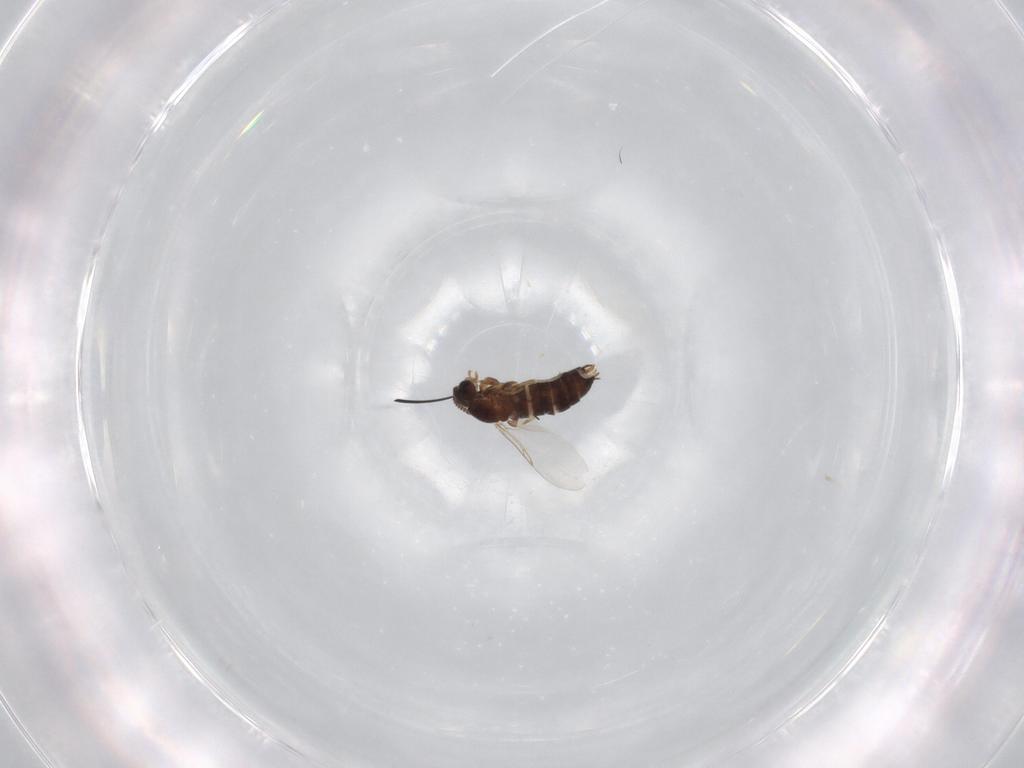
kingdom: Animalia
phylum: Arthropoda
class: Insecta
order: Diptera
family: Scatopsidae
